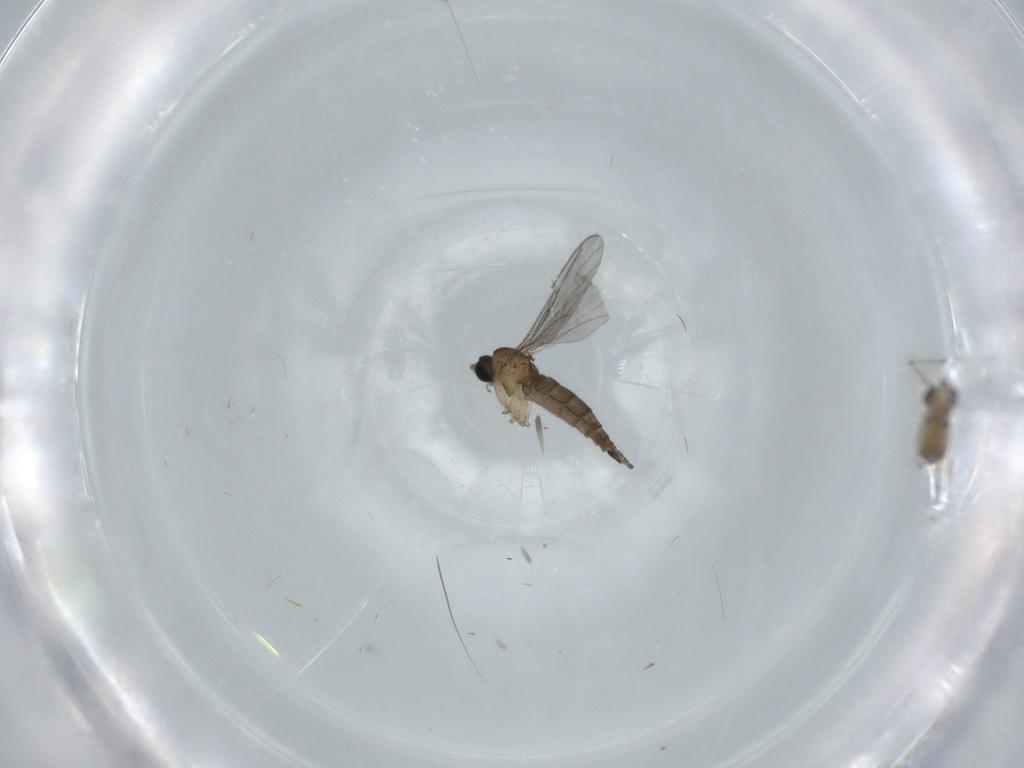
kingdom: Animalia
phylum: Arthropoda
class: Insecta
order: Diptera
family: Chironomidae
